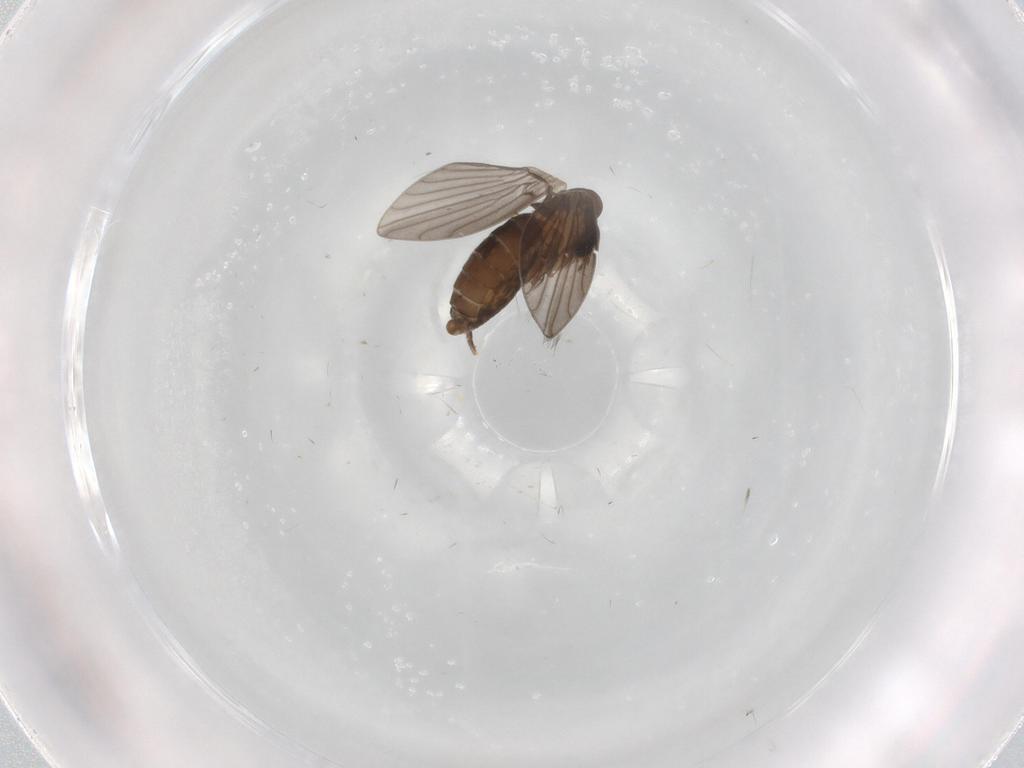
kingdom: Animalia
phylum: Arthropoda
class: Insecta
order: Diptera
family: Psychodidae
